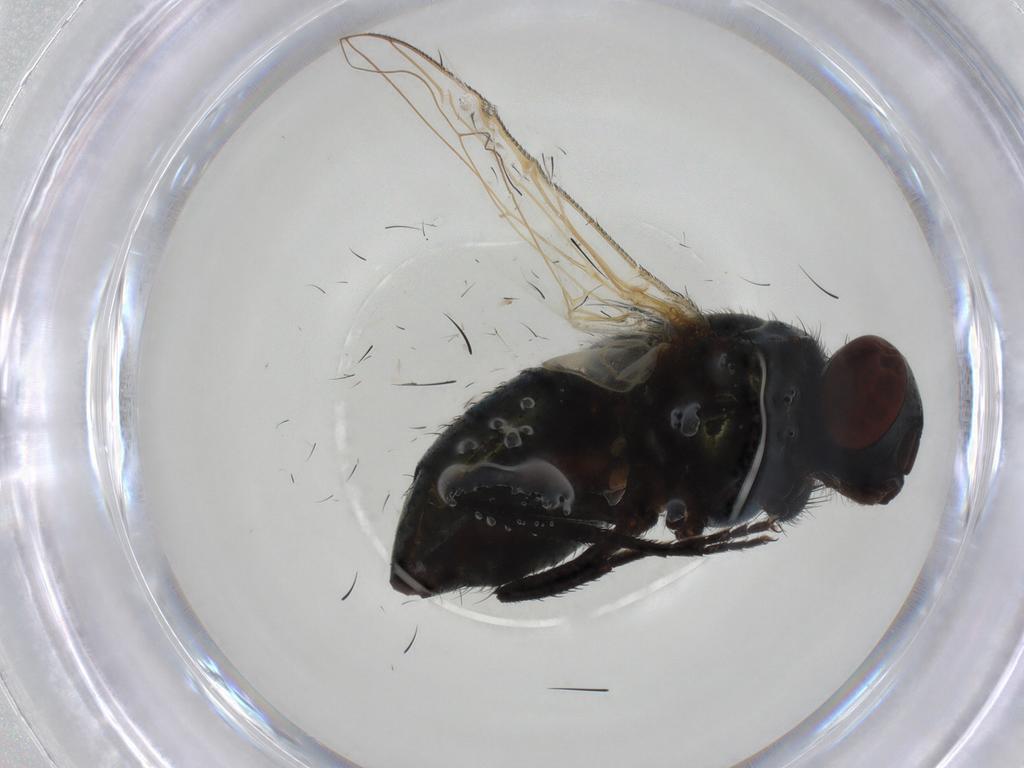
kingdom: Animalia
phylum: Arthropoda
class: Insecta
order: Diptera
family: Muscidae
